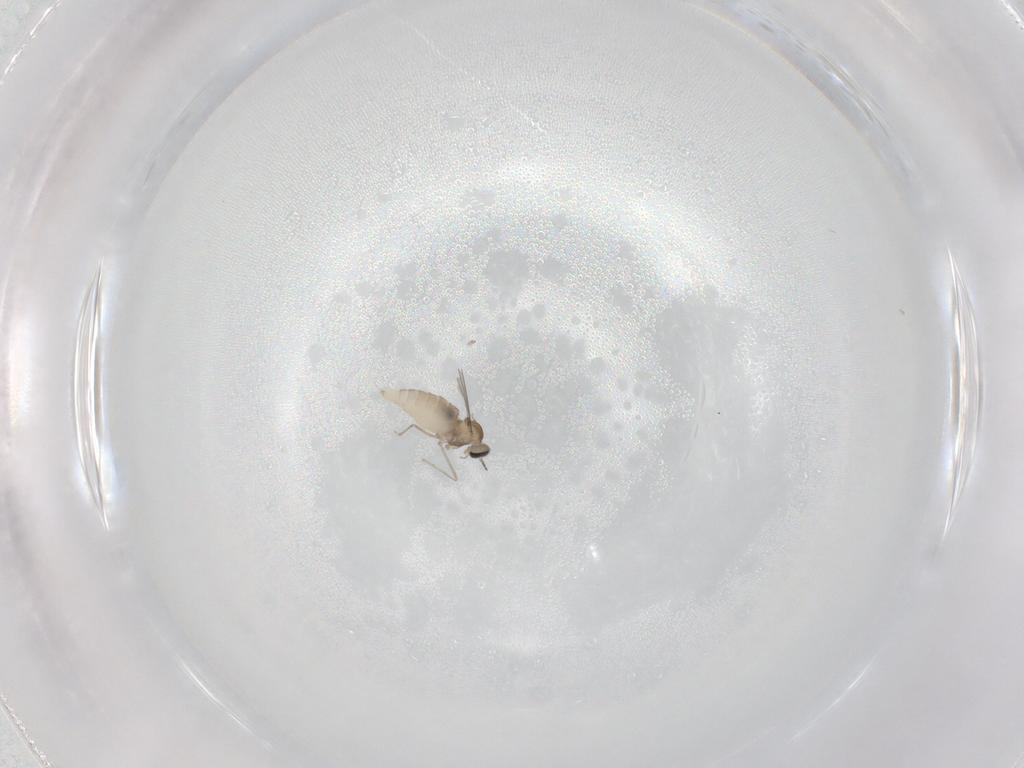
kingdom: Animalia
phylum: Arthropoda
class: Insecta
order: Diptera
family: Cecidomyiidae
